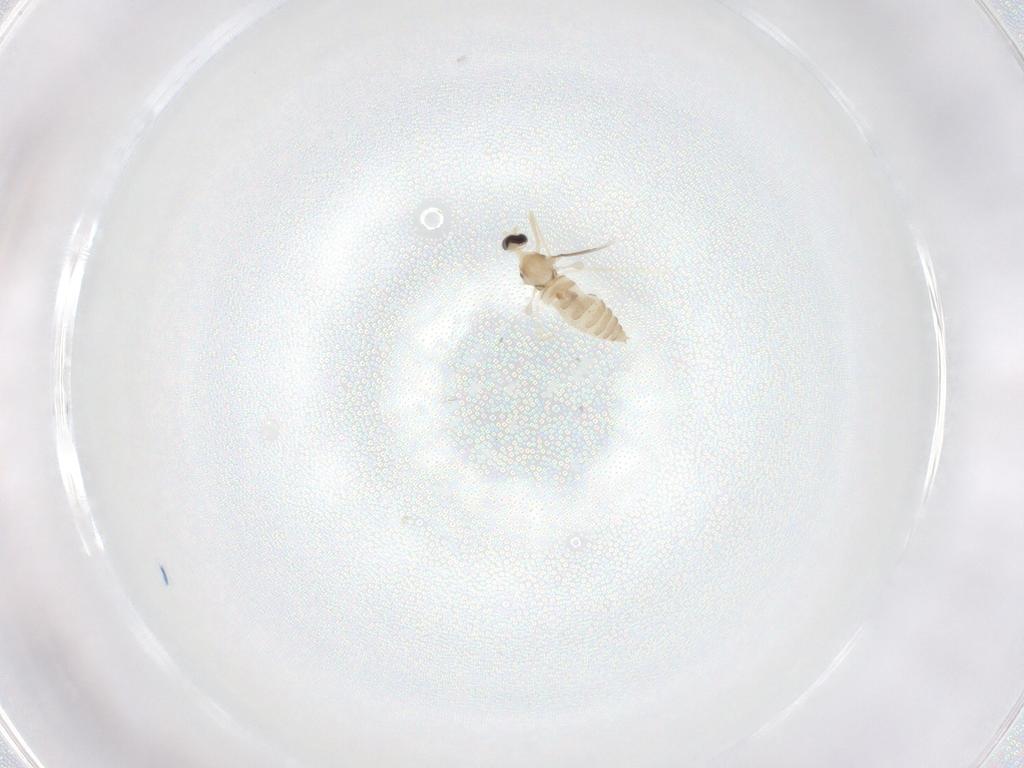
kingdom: Animalia
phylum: Arthropoda
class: Insecta
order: Diptera
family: Cecidomyiidae
